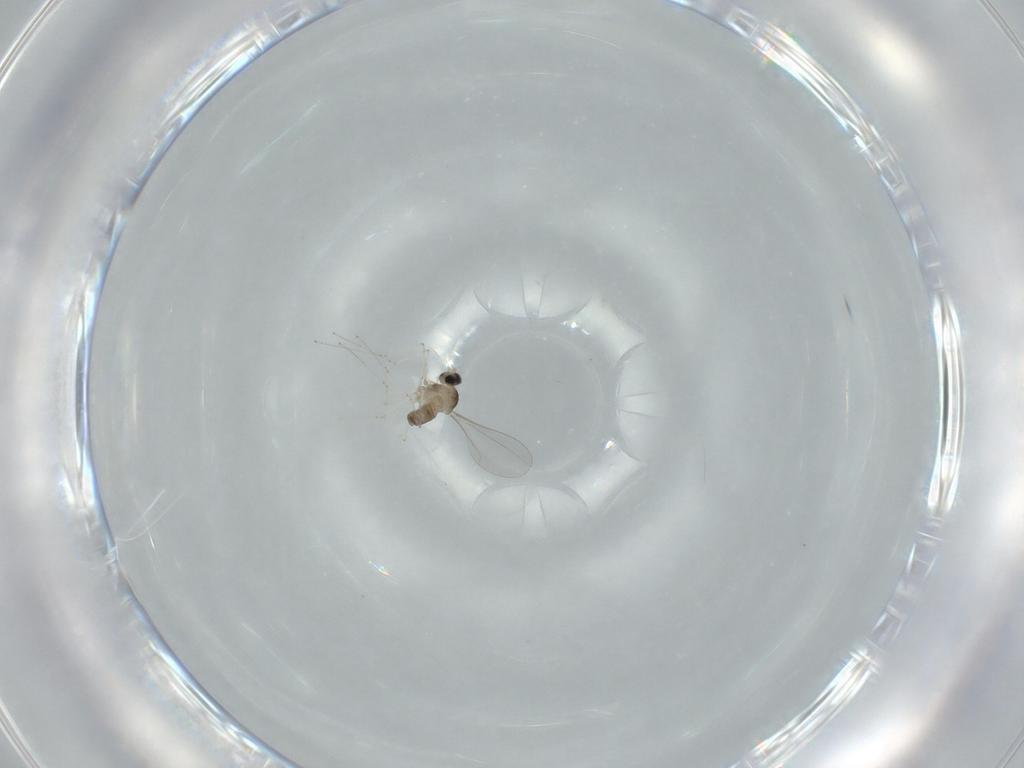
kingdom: Animalia
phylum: Arthropoda
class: Insecta
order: Diptera
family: Cecidomyiidae
